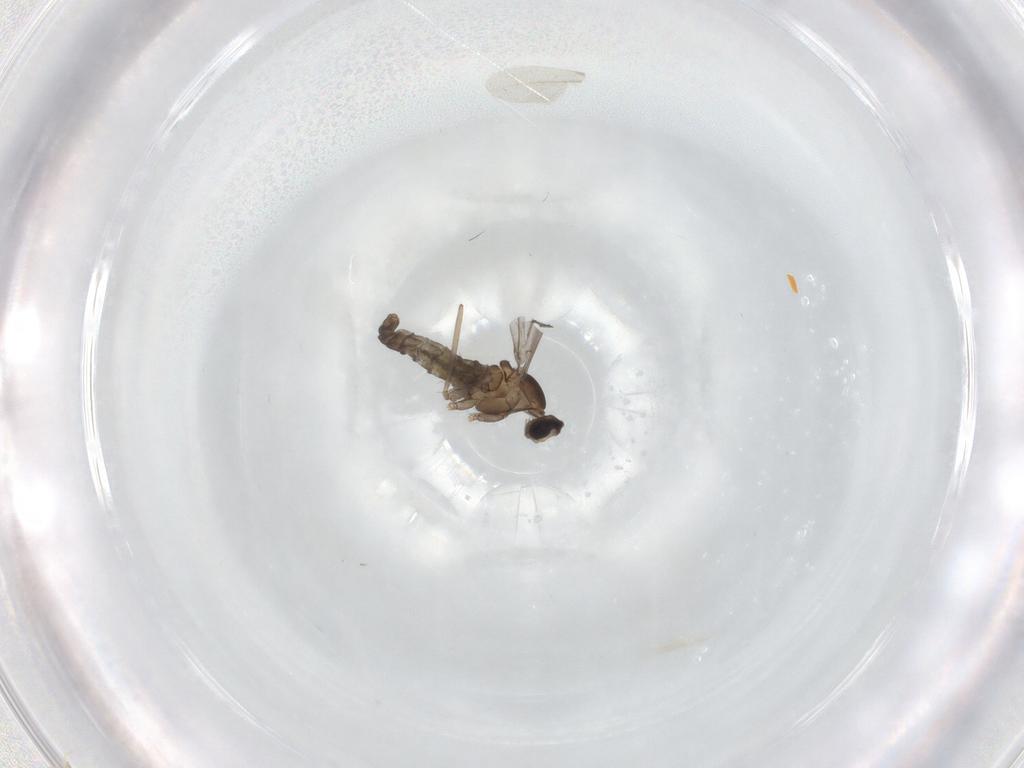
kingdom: Animalia
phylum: Arthropoda
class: Insecta
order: Diptera
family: Cecidomyiidae
